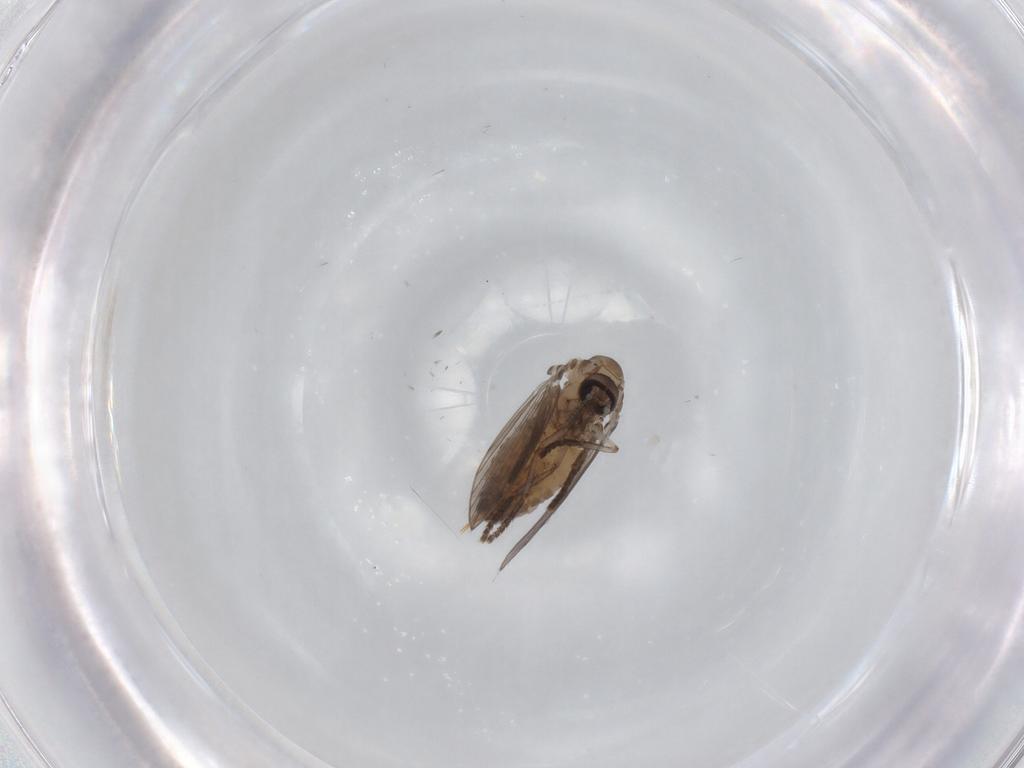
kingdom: Animalia
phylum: Arthropoda
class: Insecta
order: Diptera
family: Psychodidae
